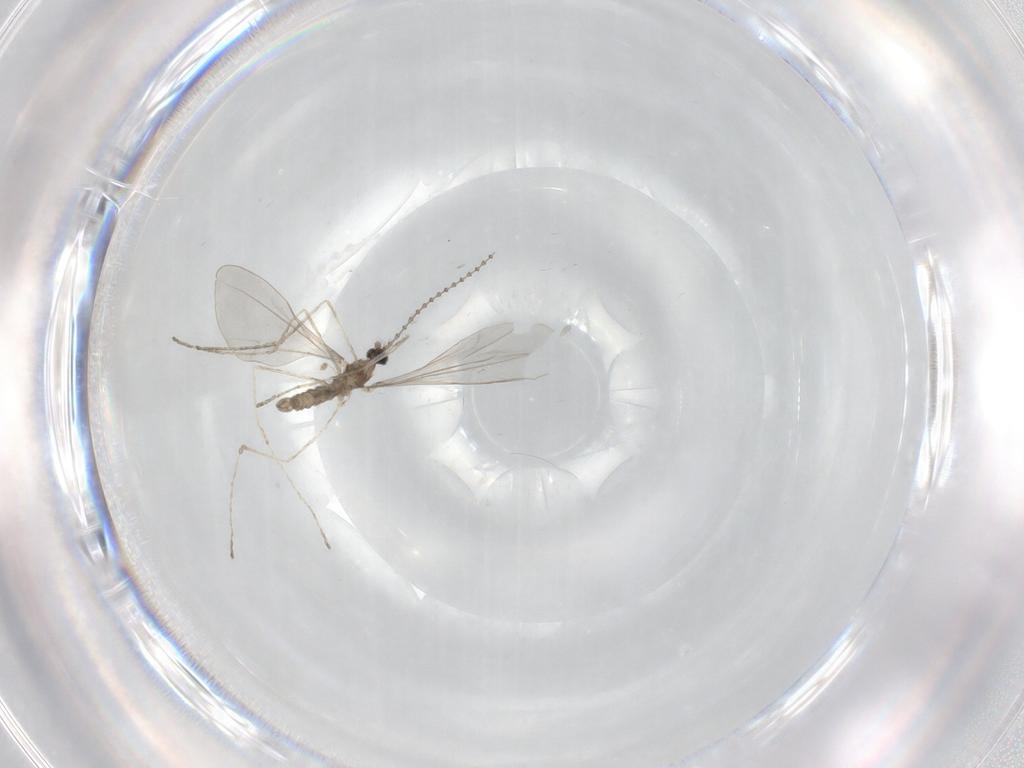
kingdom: Animalia
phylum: Arthropoda
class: Insecta
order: Diptera
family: Cecidomyiidae
